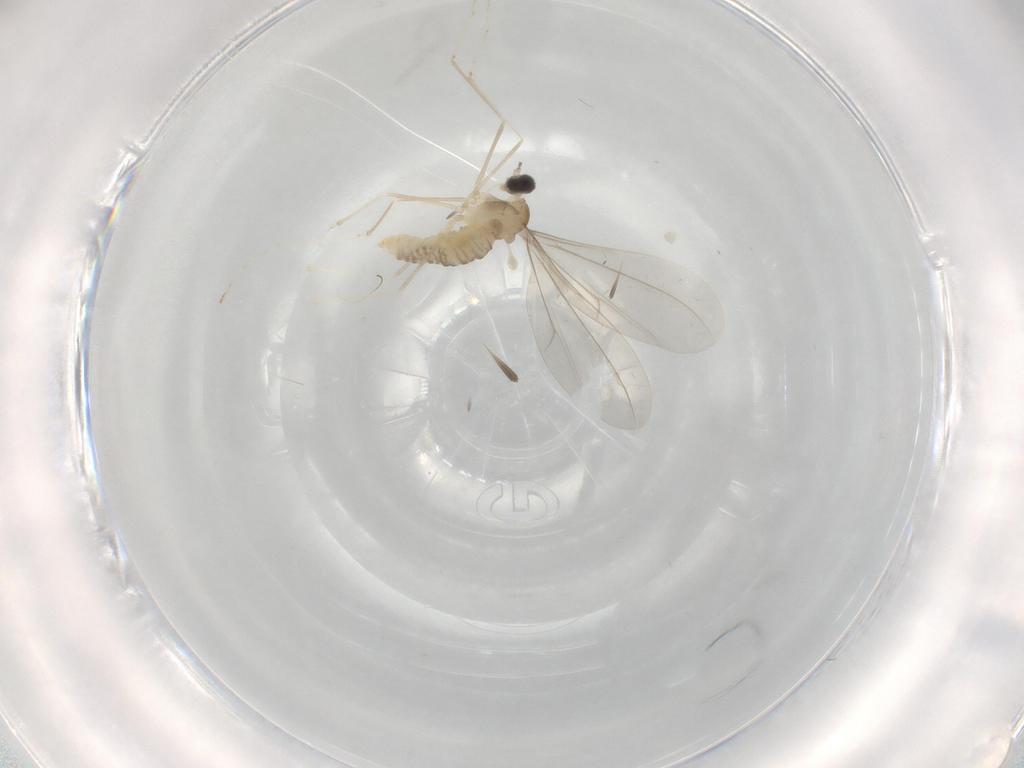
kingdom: Animalia
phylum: Arthropoda
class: Insecta
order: Diptera
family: Cecidomyiidae
